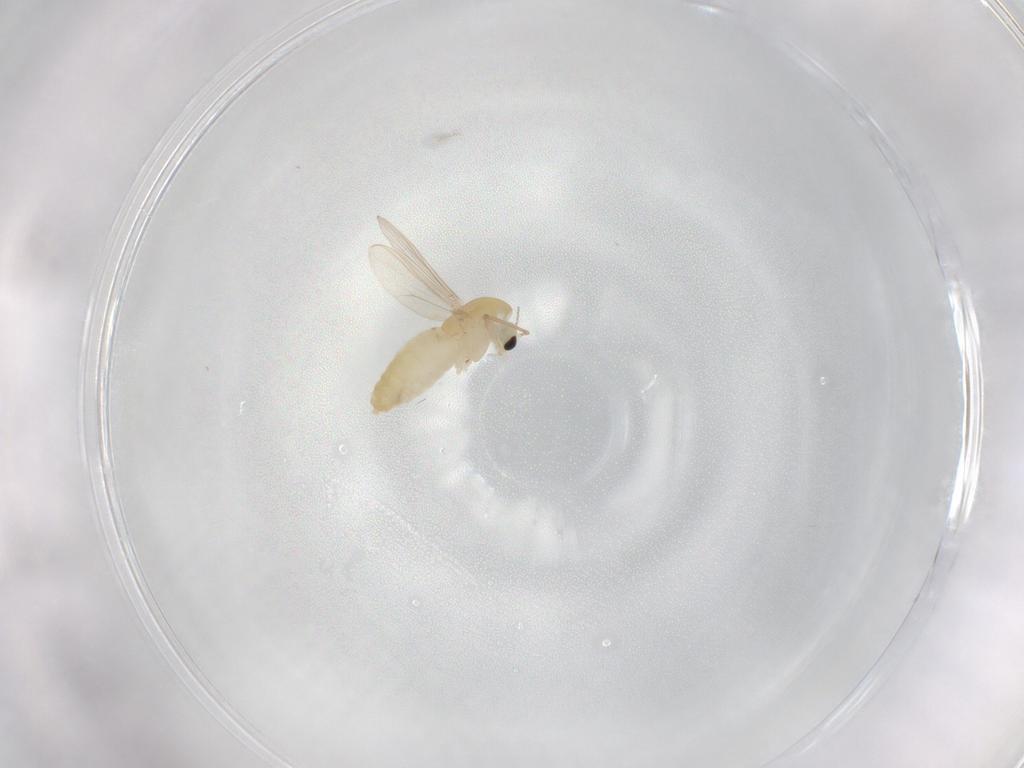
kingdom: Animalia
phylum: Arthropoda
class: Insecta
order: Diptera
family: Chironomidae
